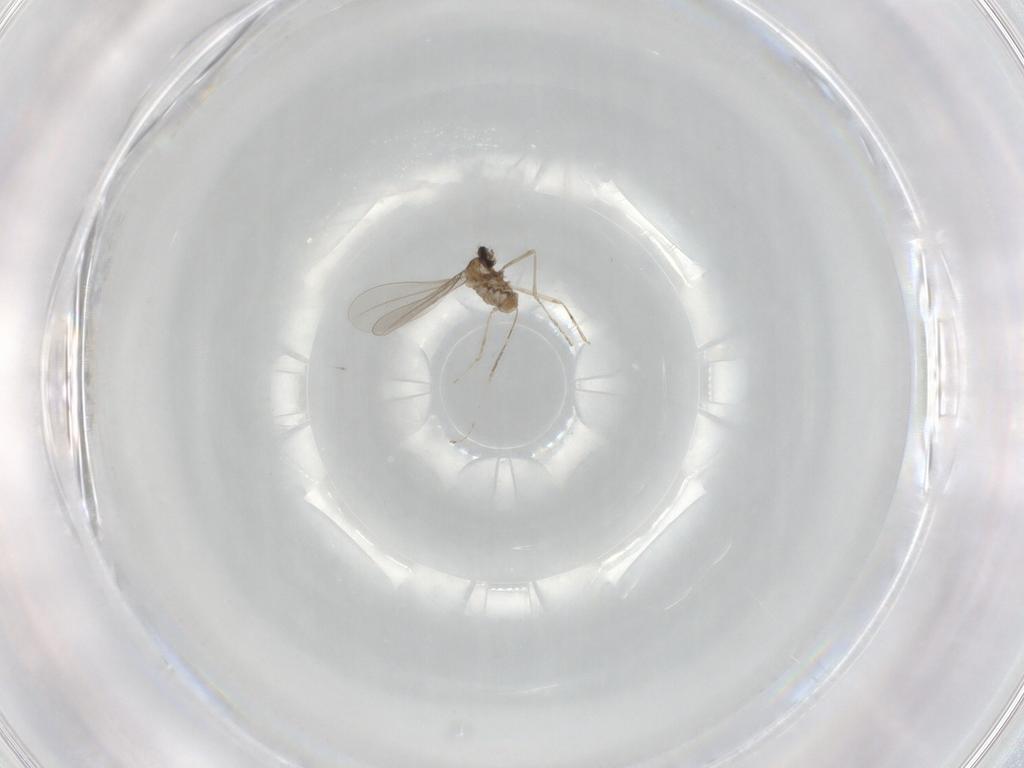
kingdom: Animalia
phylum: Arthropoda
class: Insecta
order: Diptera
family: Cecidomyiidae
